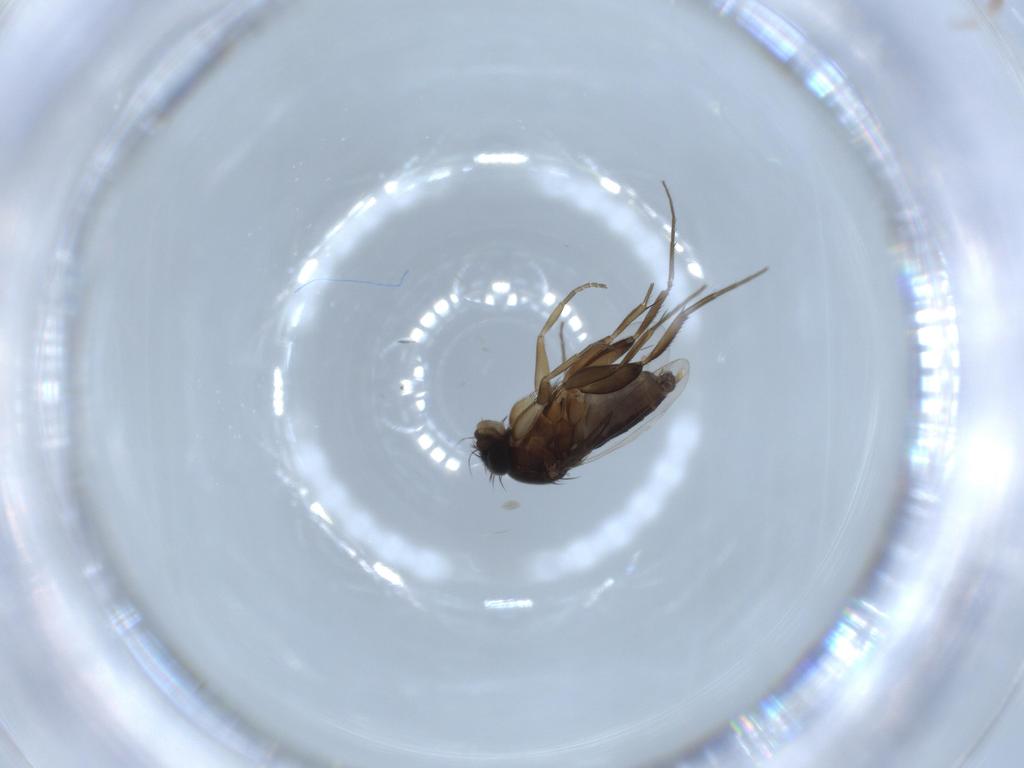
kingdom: Animalia
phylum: Arthropoda
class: Insecta
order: Diptera
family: Phoridae
